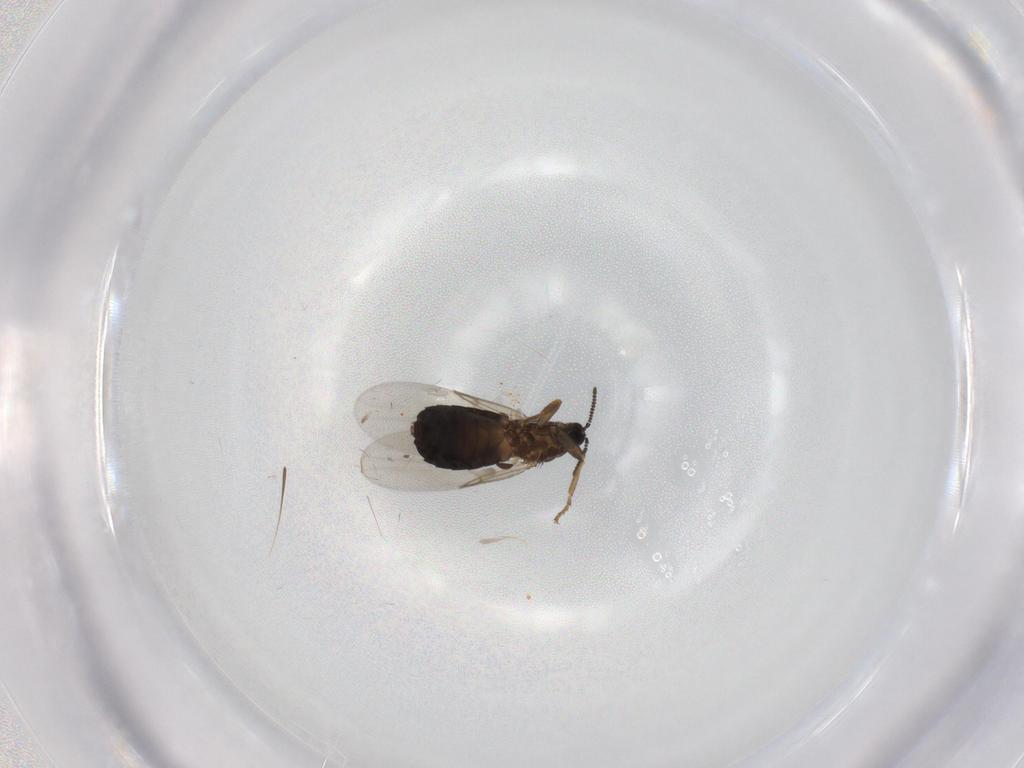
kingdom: Animalia
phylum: Arthropoda
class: Insecta
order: Diptera
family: Scatopsidae
